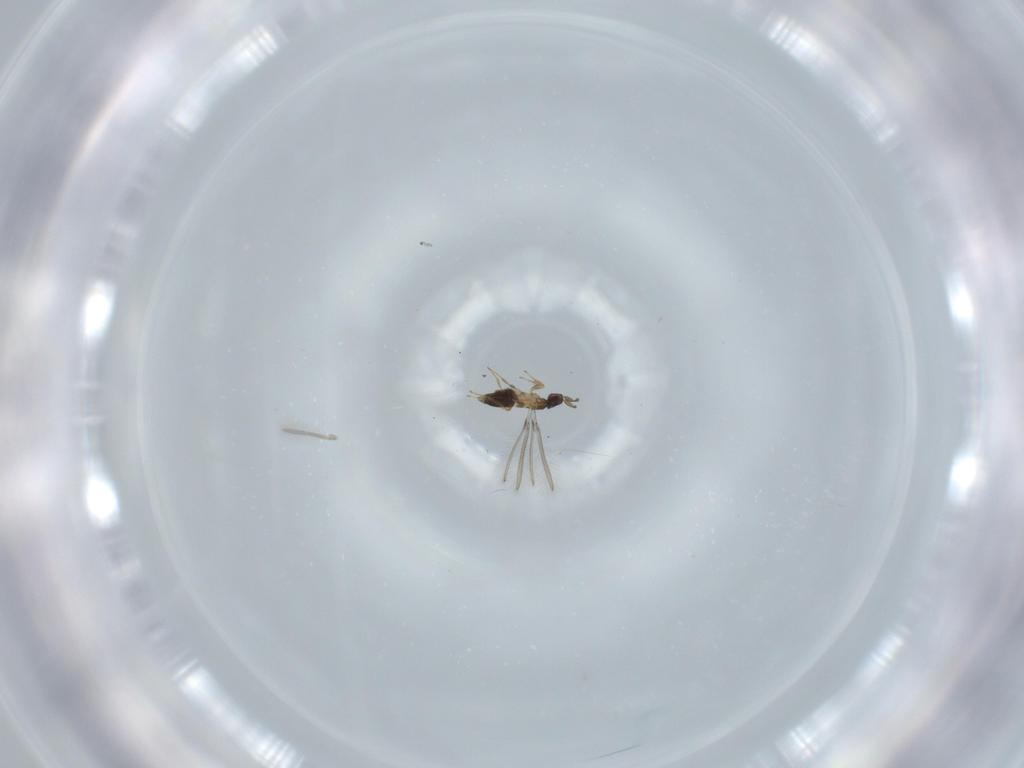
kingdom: Animalia
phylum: Arthropoda
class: Insecta
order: Hymenoptera
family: Mymaridae
